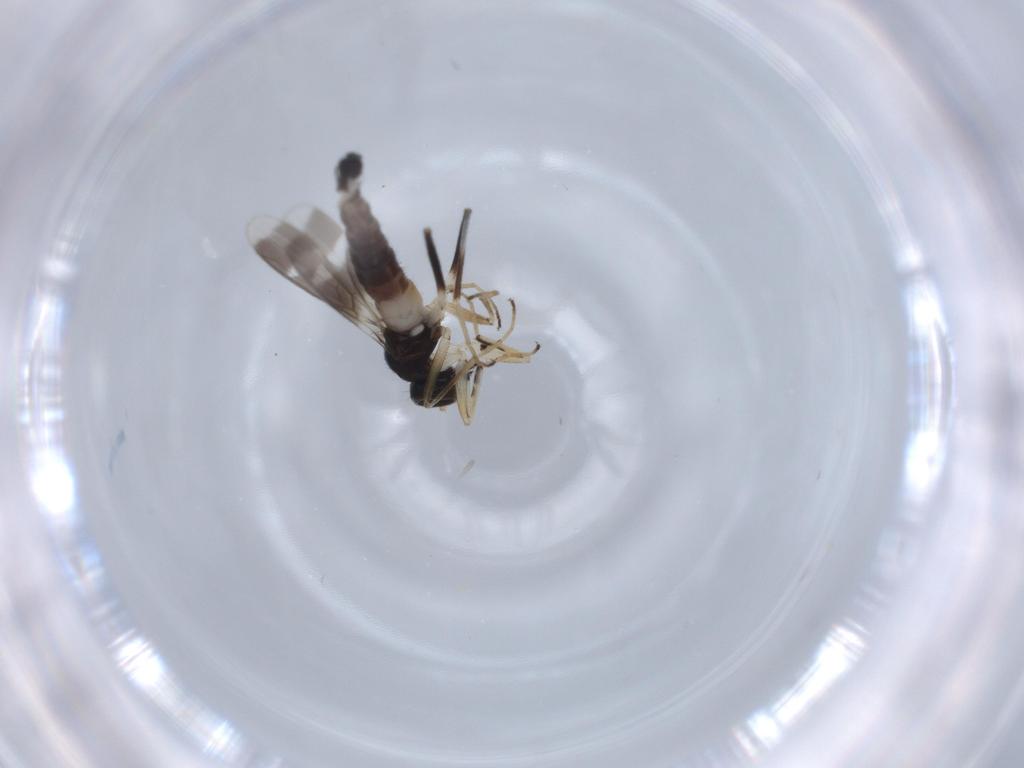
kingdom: Animalia
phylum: Arthropoda
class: Insecta
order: Diptera
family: Hybotidae
